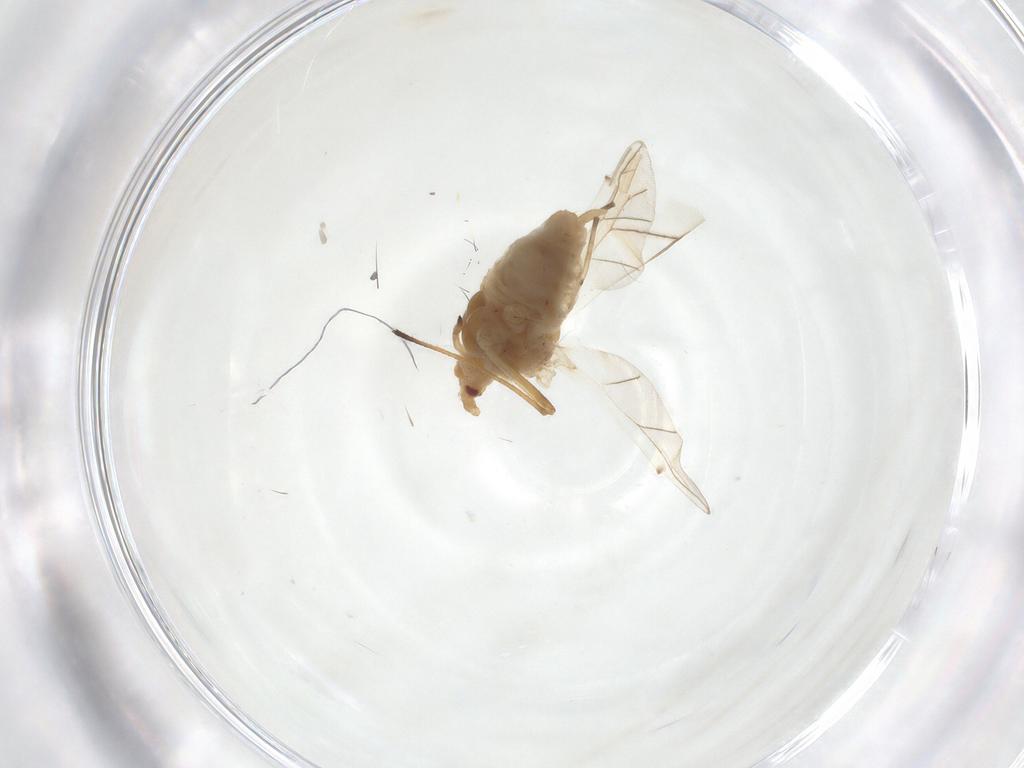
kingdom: Animalia
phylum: Arthropoda
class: Insecta
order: Hemiptera
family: Aphididae
